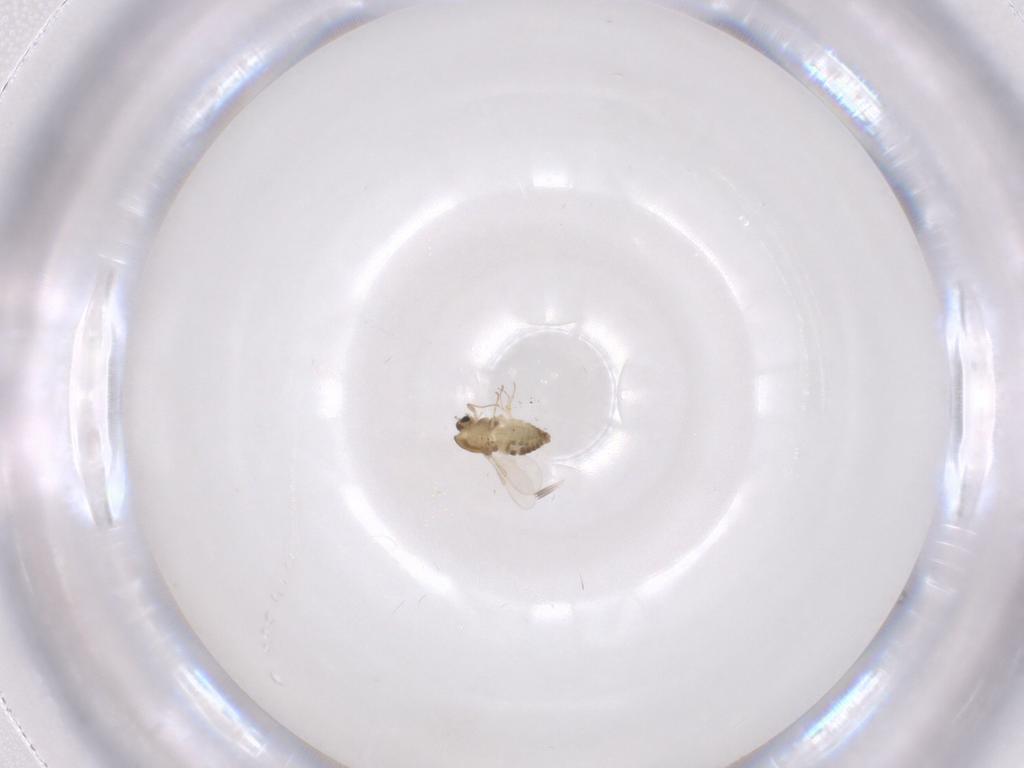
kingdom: Animalia
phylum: Arthropoda
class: Insecta
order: Diptera
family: Chironomidae
